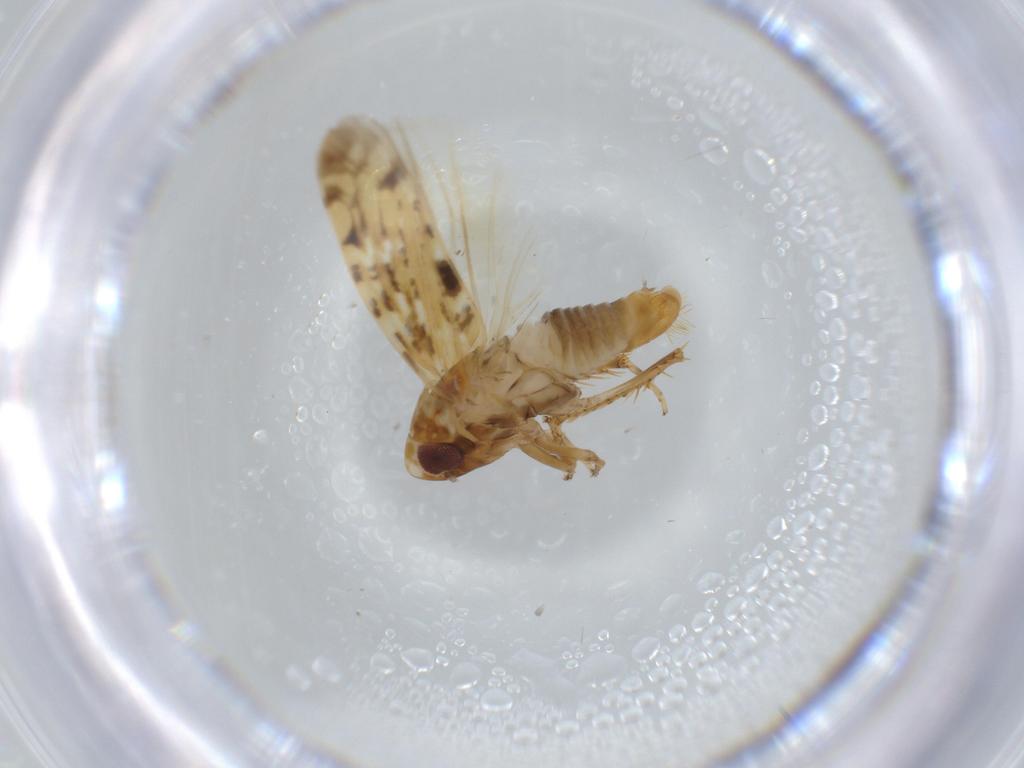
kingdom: Animalia
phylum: Arthropoda
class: Insecta
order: Hemiptera
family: Cicadellidae
